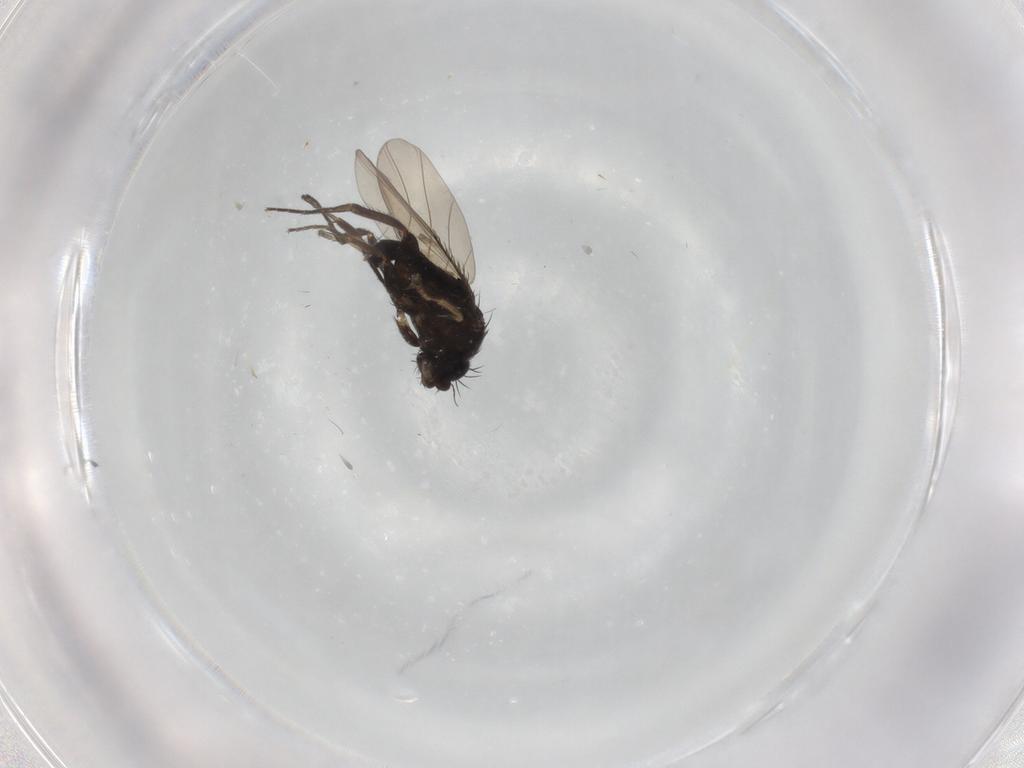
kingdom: Animalia
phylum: Arthropoda
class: Insecta
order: Diptera
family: Phoridae
